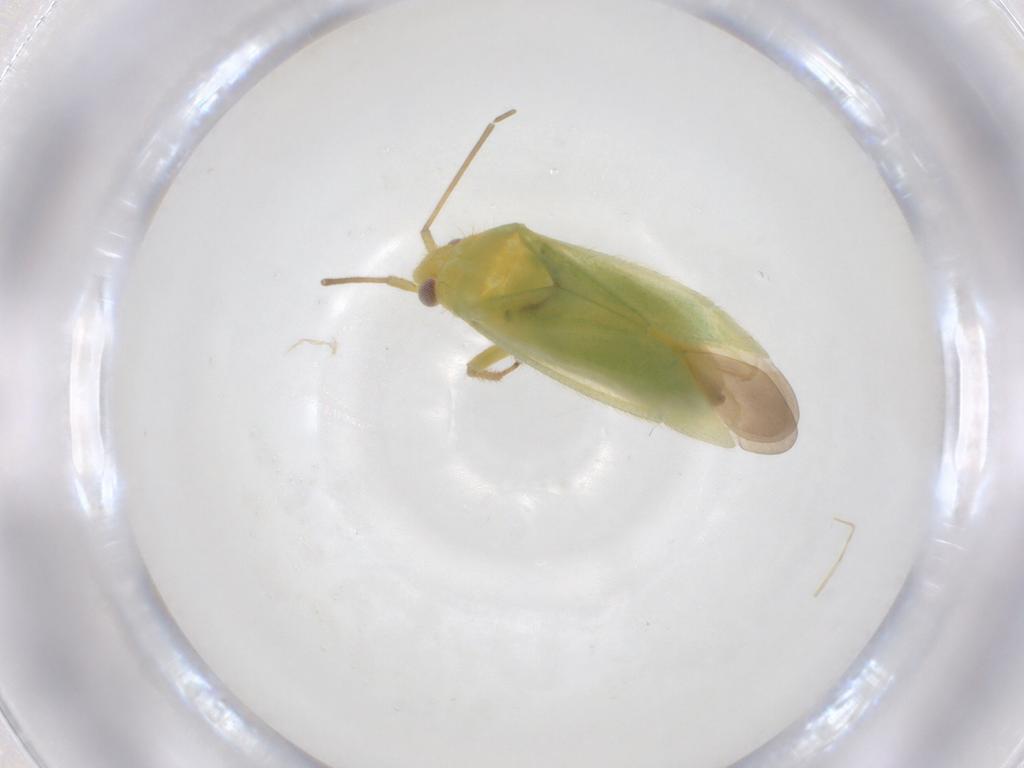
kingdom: Animalia
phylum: Arthropoda
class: Insecta
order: Hemiptera
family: Miridae
